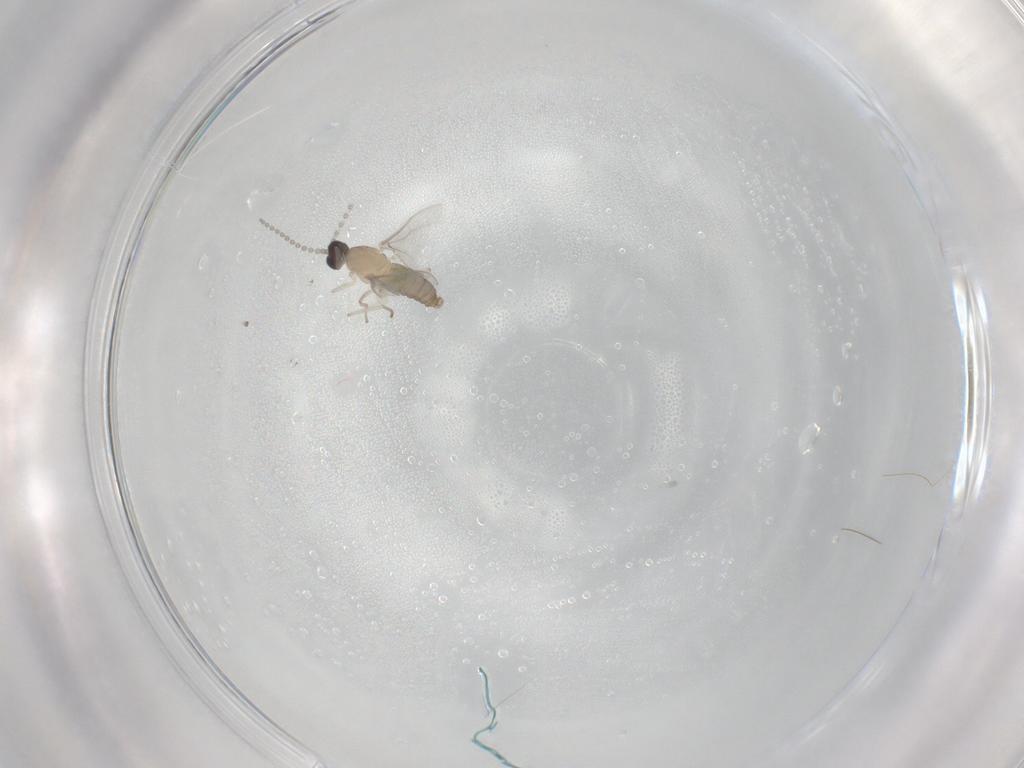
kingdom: Animalia
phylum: Arthropoda
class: Insecta
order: Diptera
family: Cecidomyiidae
